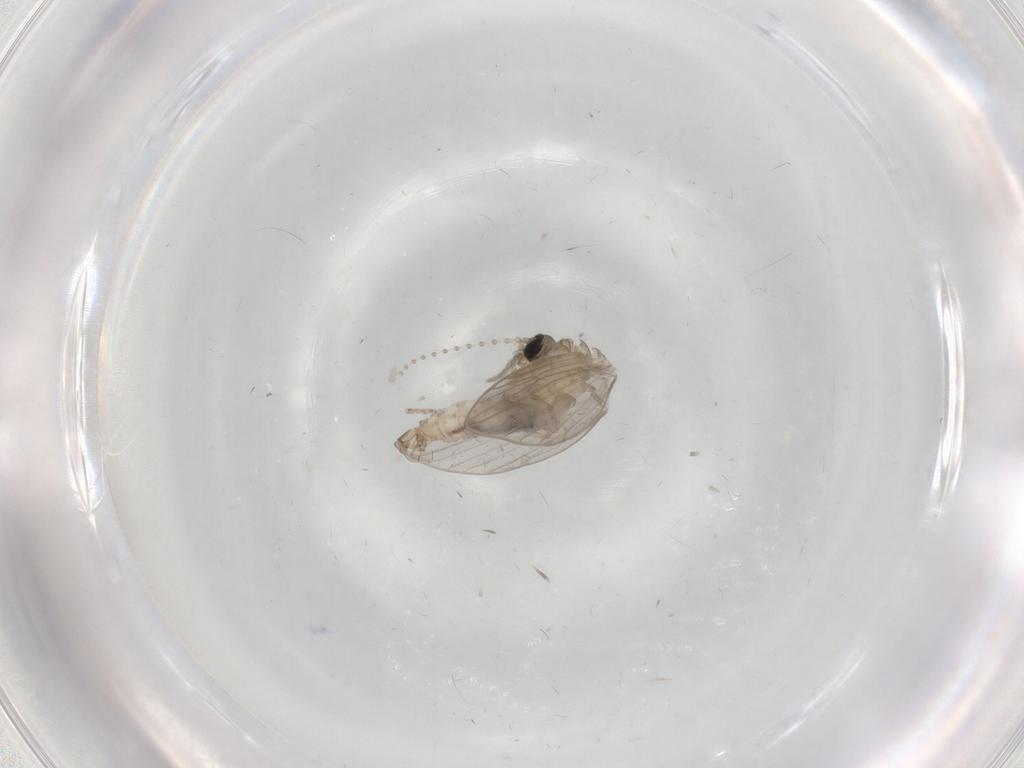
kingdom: Animalia
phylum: Arthropoda
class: Insecta
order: Diptera
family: Psychodidae
